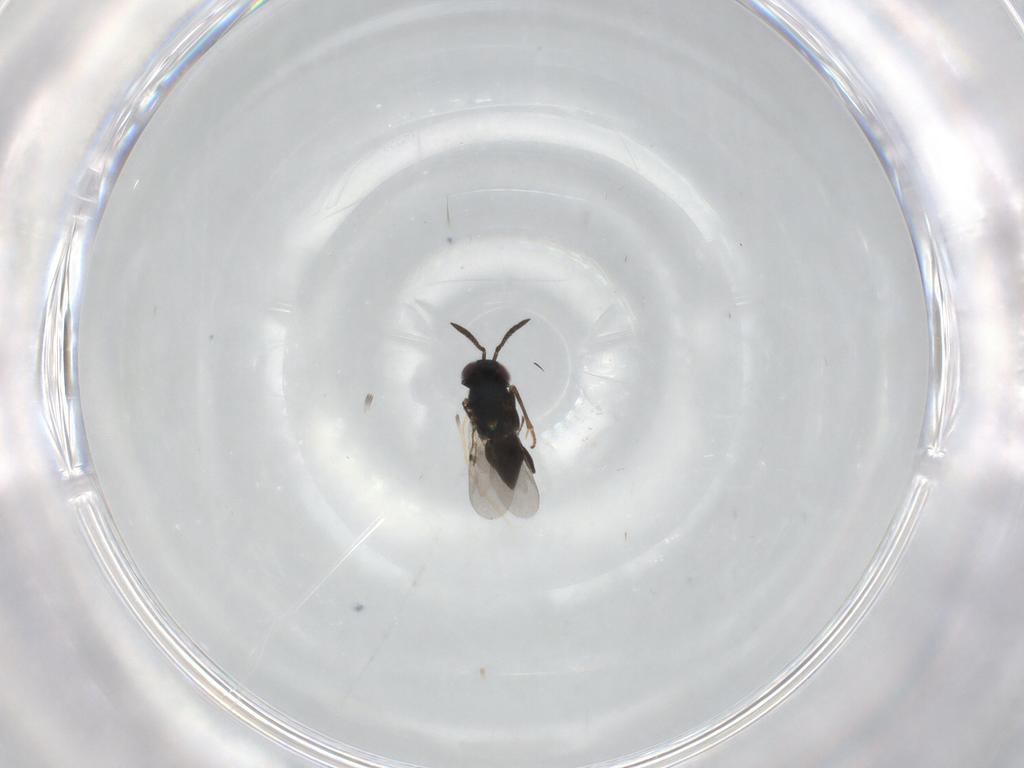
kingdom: Animalia
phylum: Arthropoda
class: Insecta
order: Hymenoptera
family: Encyrtidae
